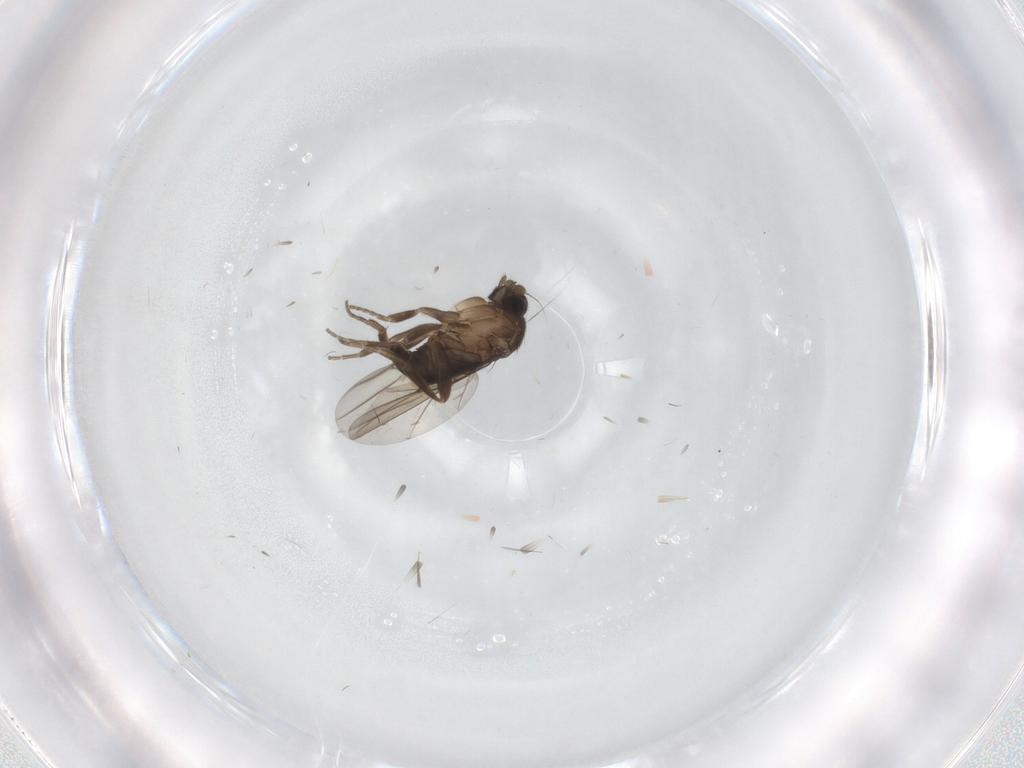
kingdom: Animalia
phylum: Arthropoda
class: Insecta
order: Diptera
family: Phoridae
